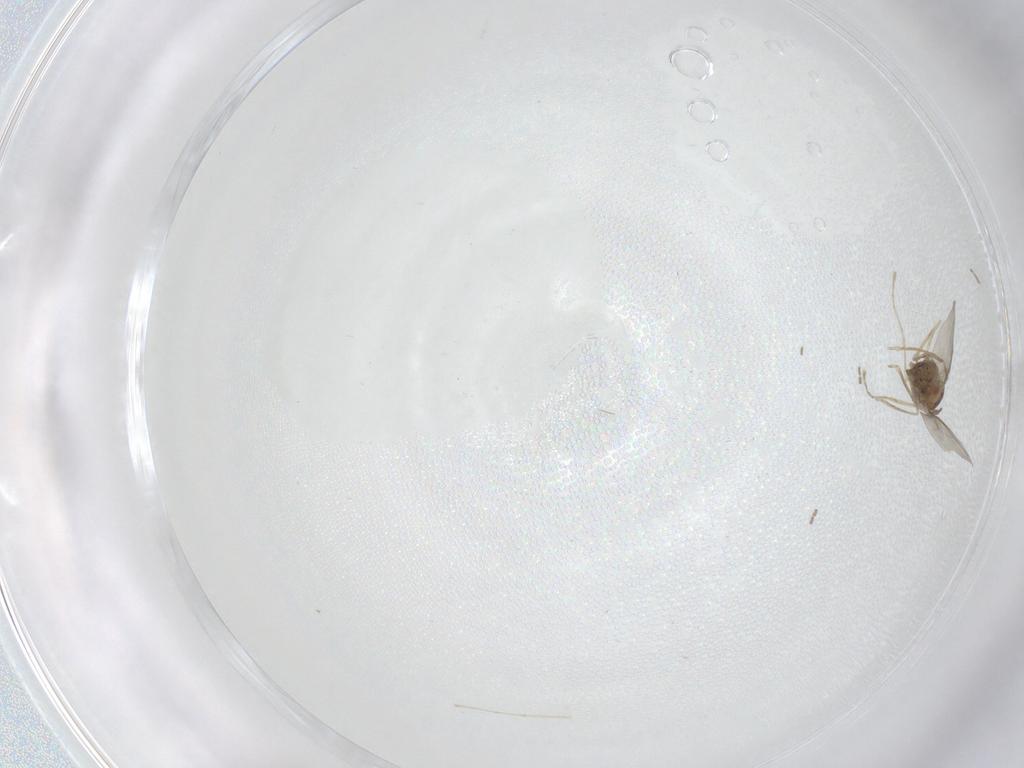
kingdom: Animalia
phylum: Arthropoda
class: Insecta
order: Diptera
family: Cecidomyiidae
